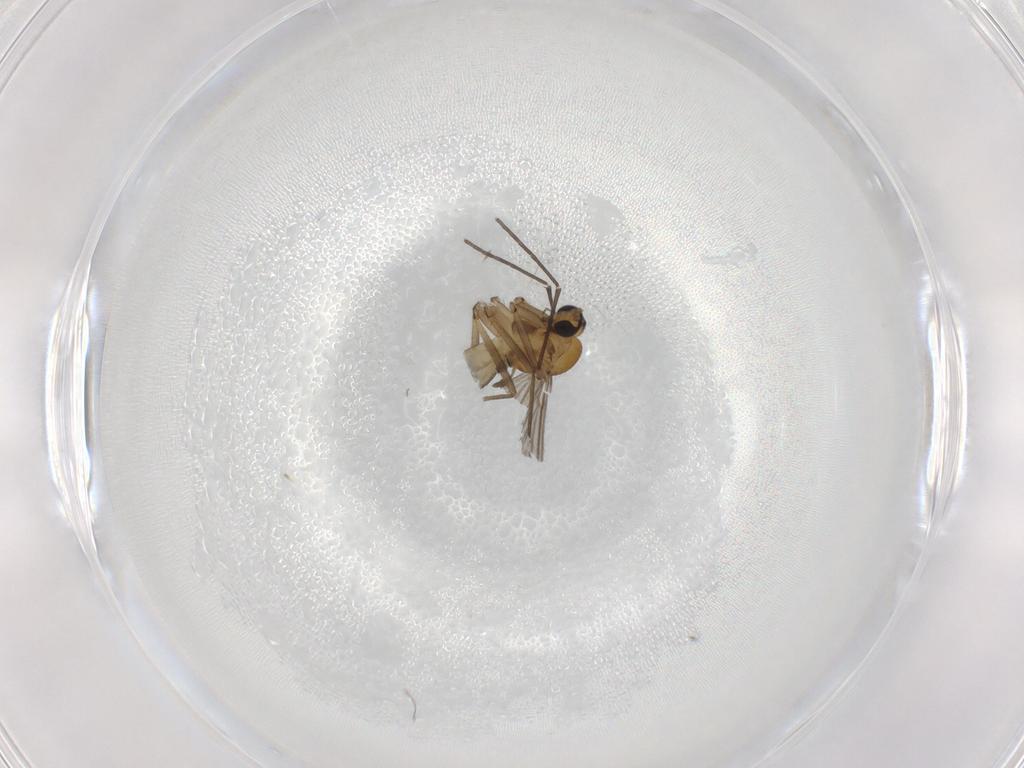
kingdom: Animalia
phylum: Arthropoda
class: Insecta
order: Diptera
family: Sciaridae
